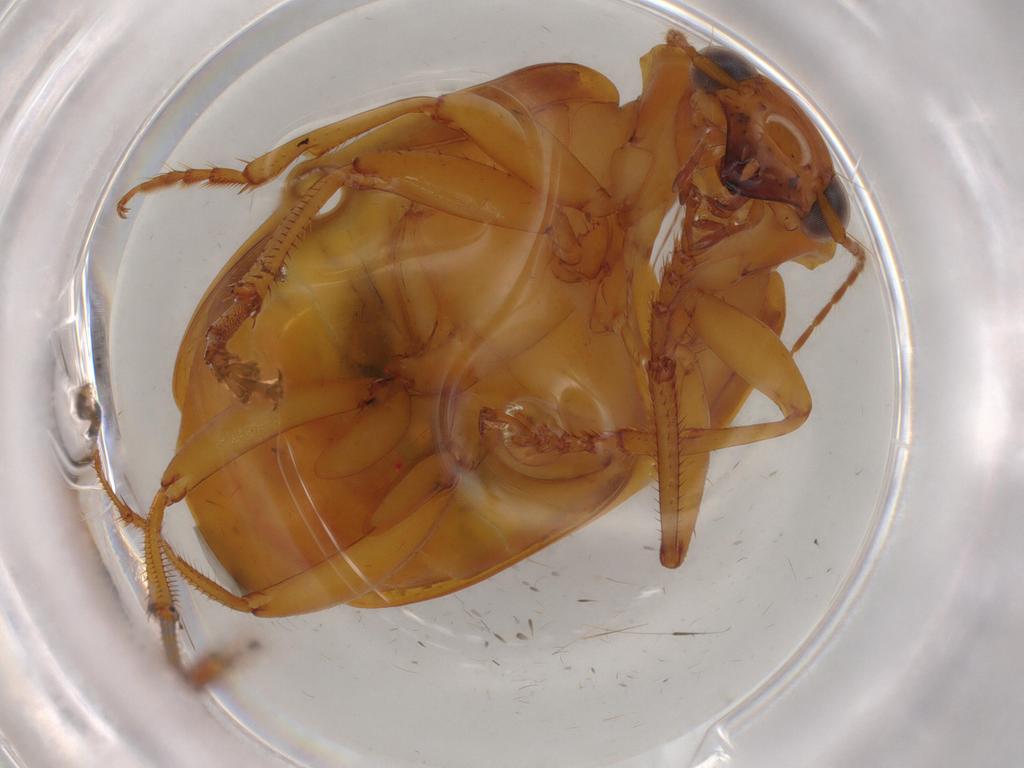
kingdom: Animalia
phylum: Arthropoda
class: Insecta
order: Coleoptera
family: Carabidae
